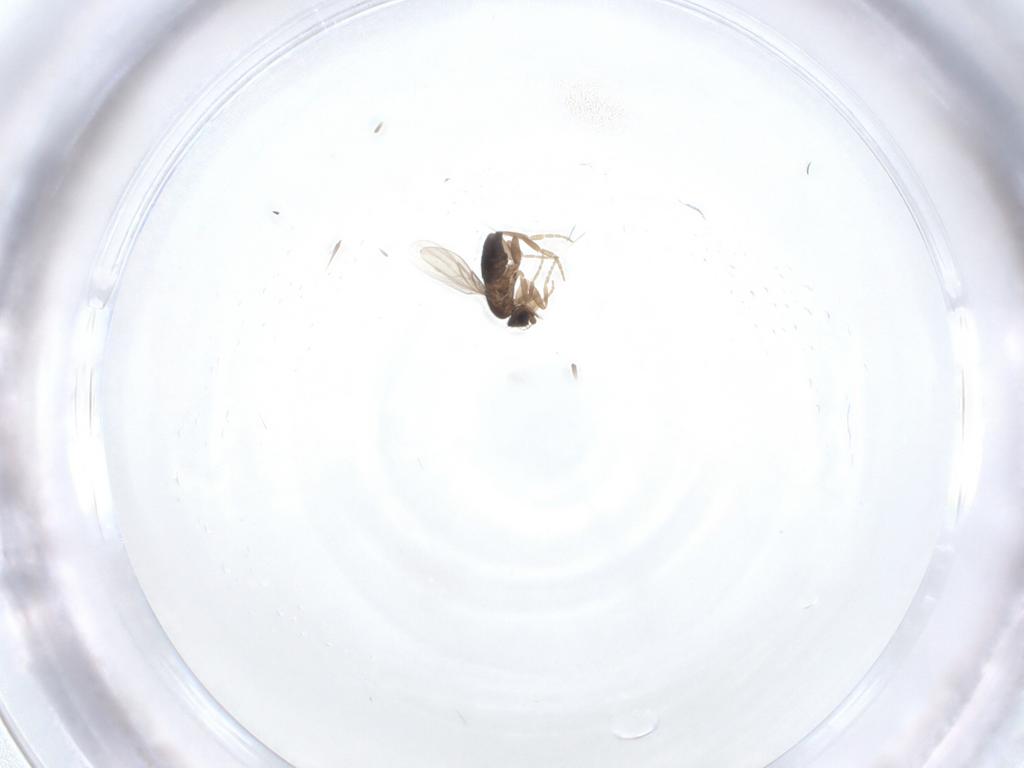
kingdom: Animalia
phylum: Arthropoda
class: Insecta
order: Diptera
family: Phoridae
